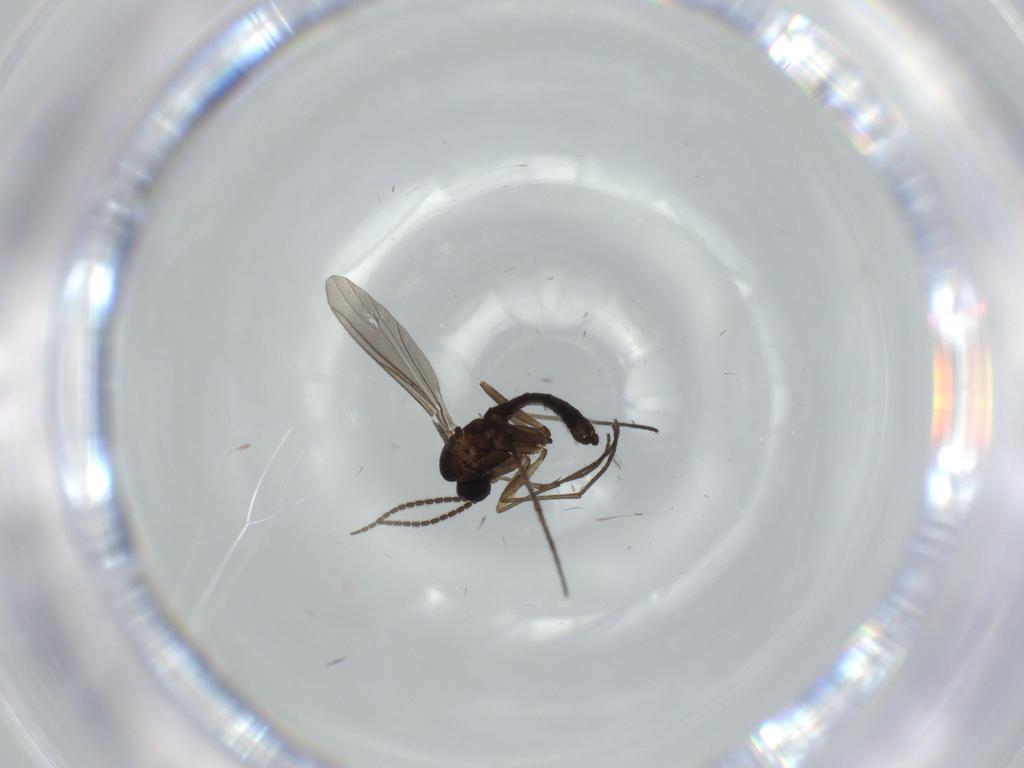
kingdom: Animalia
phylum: Arthropoda
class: Insecta
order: Diptera
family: Sciaridae
